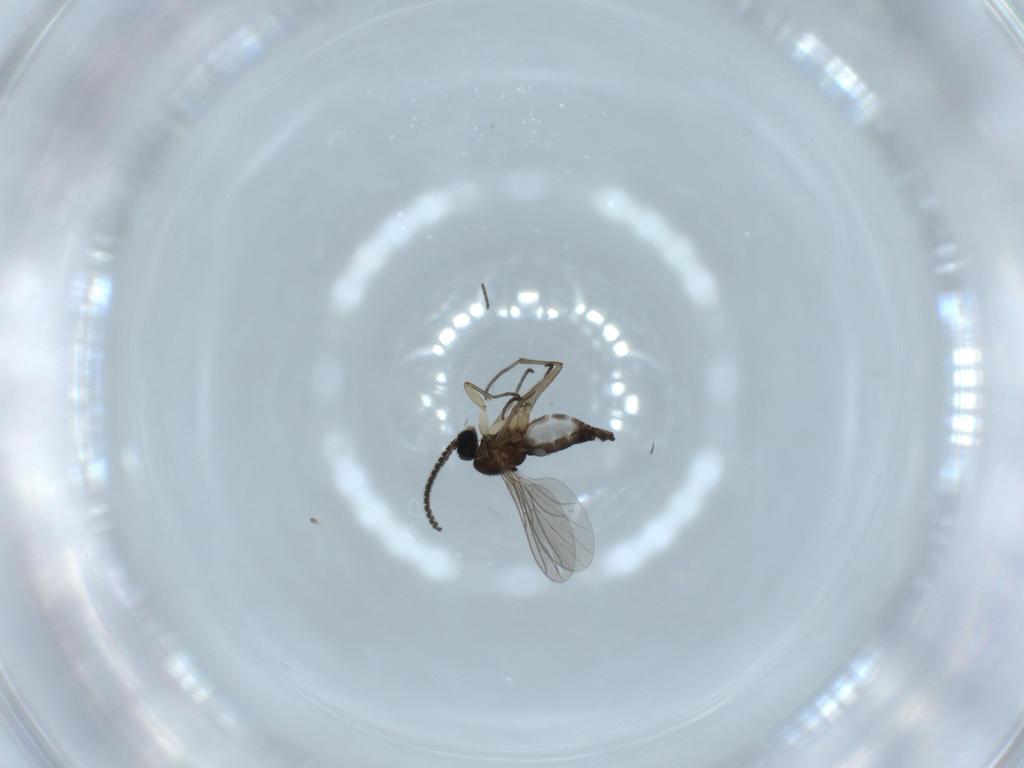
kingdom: Animalia
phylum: Arthropoda
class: Insecta
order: Diptera
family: Sciaridae
